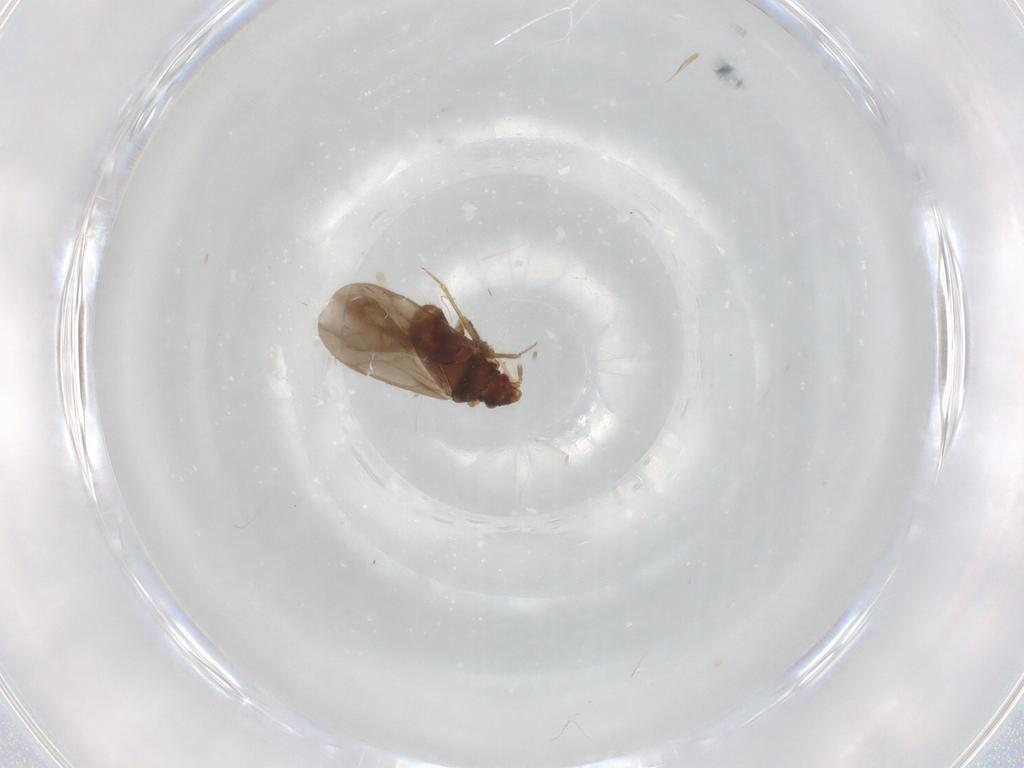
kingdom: Animalia
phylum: Arthropoda
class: Insecta
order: Hemiptera
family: Ceratocombidae
